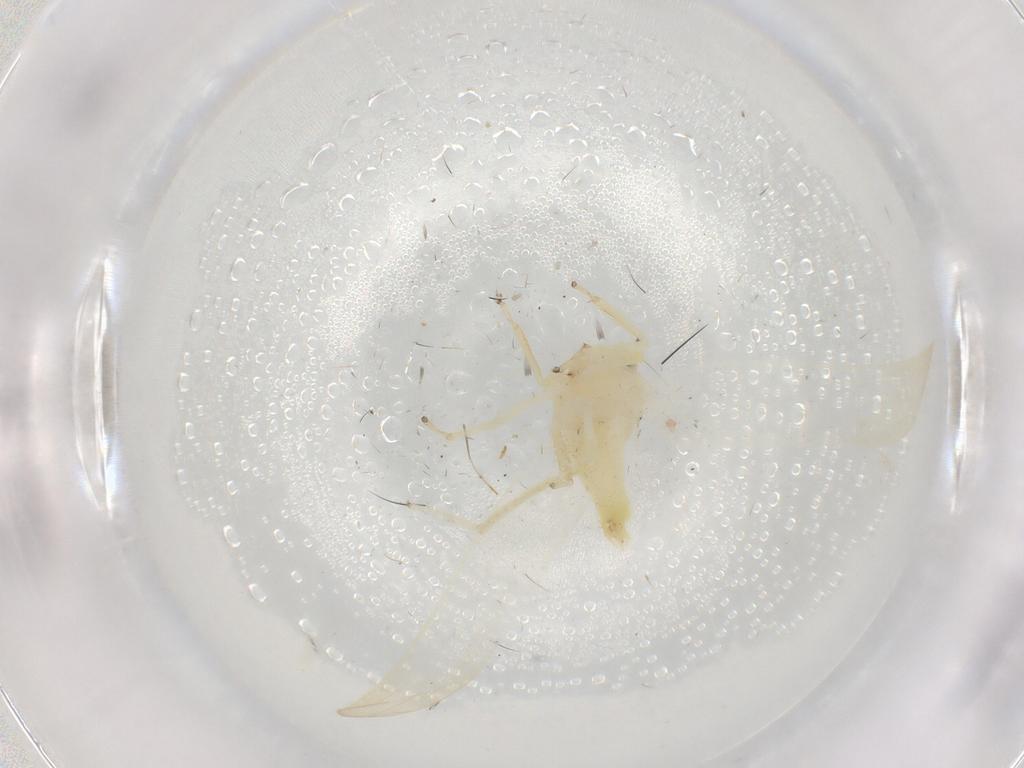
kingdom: Animalia
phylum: Arthropoda
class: Insecta
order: Hemiptera
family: Cicadellidae
